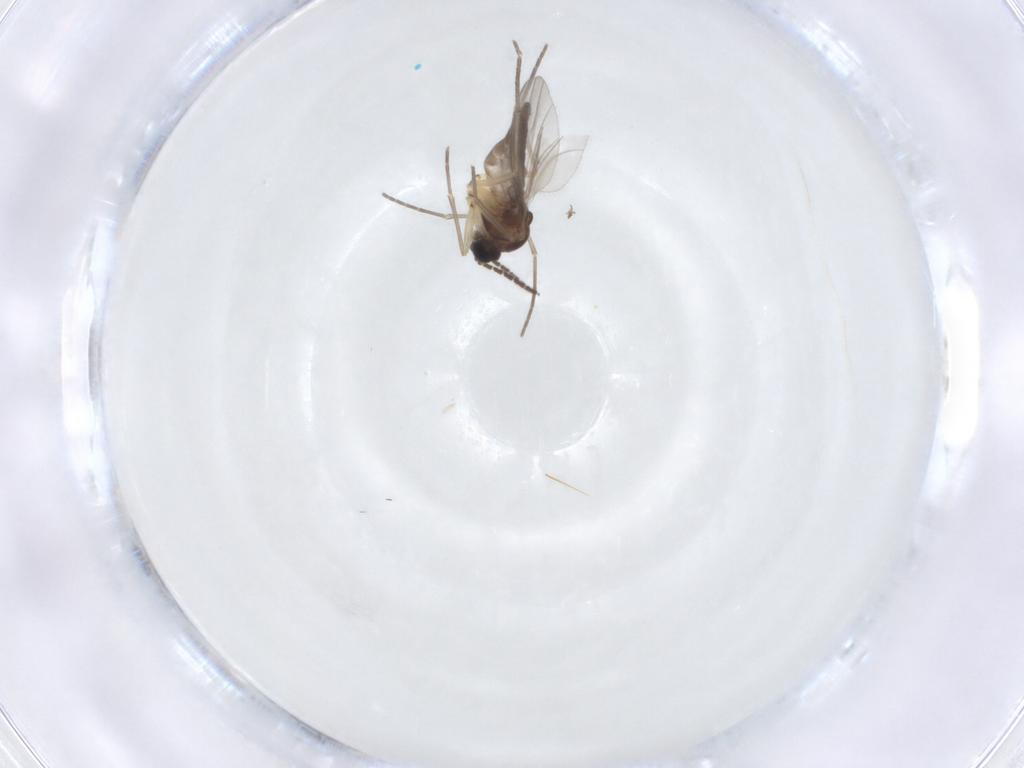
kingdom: Animalia
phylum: Arthropoda
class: Insecta
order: Diptera
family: Sciaridae
